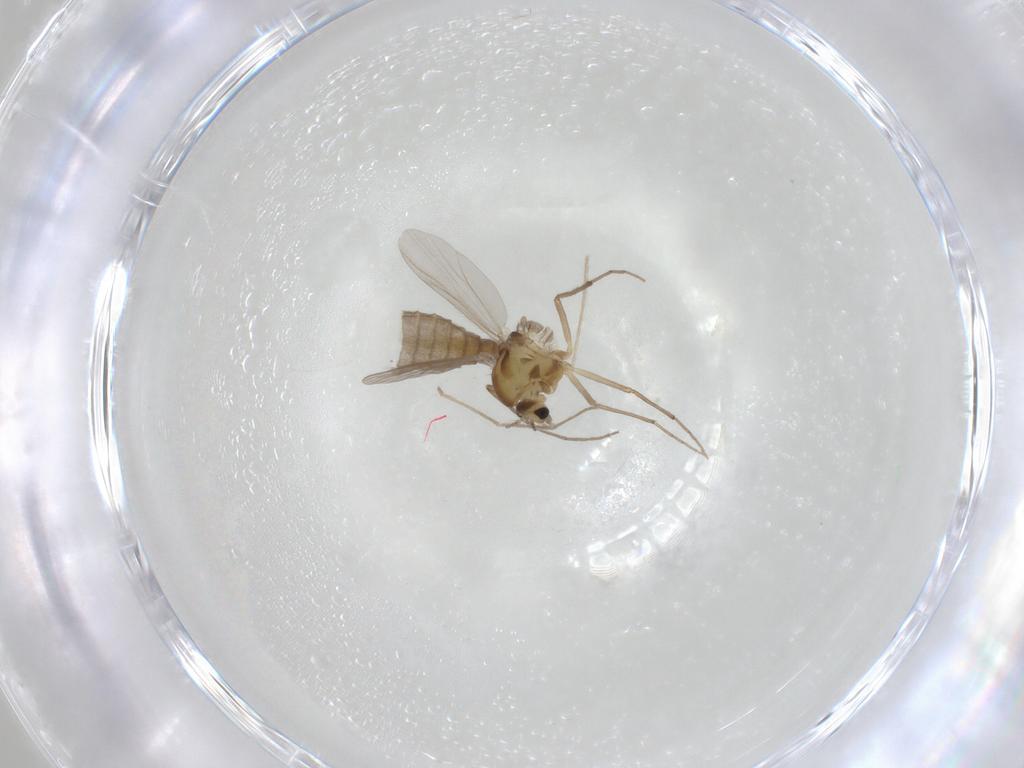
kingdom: Animalia
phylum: Arthropoda
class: Insecta
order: Diptera
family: Chironomidae
